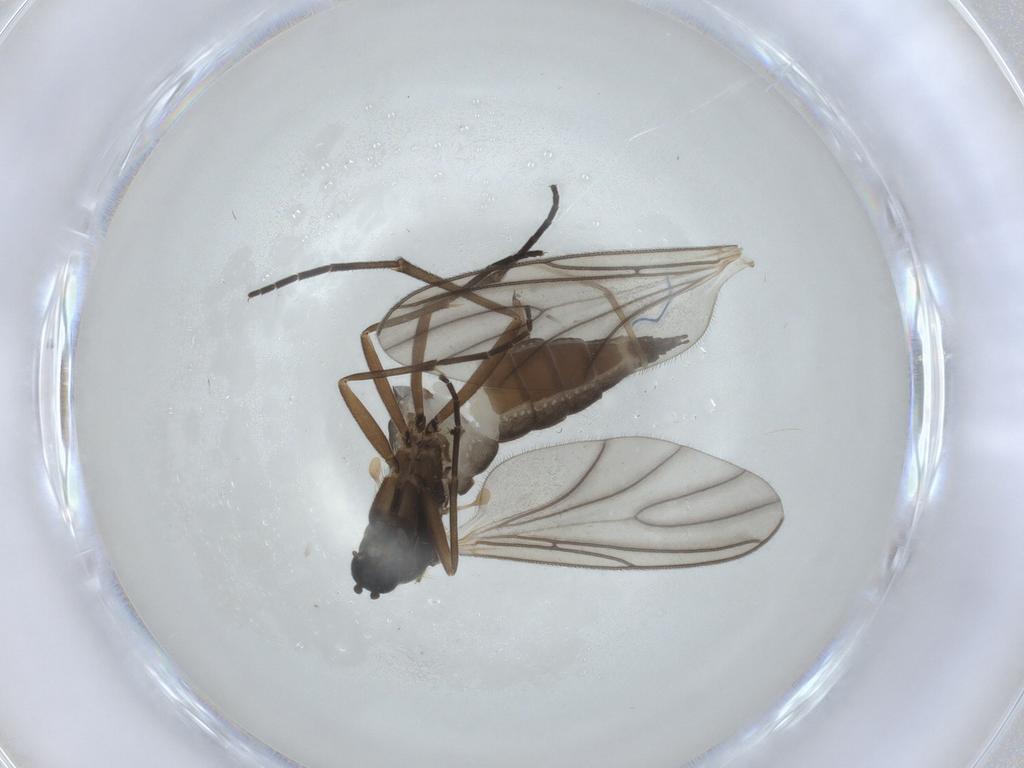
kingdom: Animalia
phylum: Arthropoda
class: Insecta
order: Diptera
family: Sciaridae
